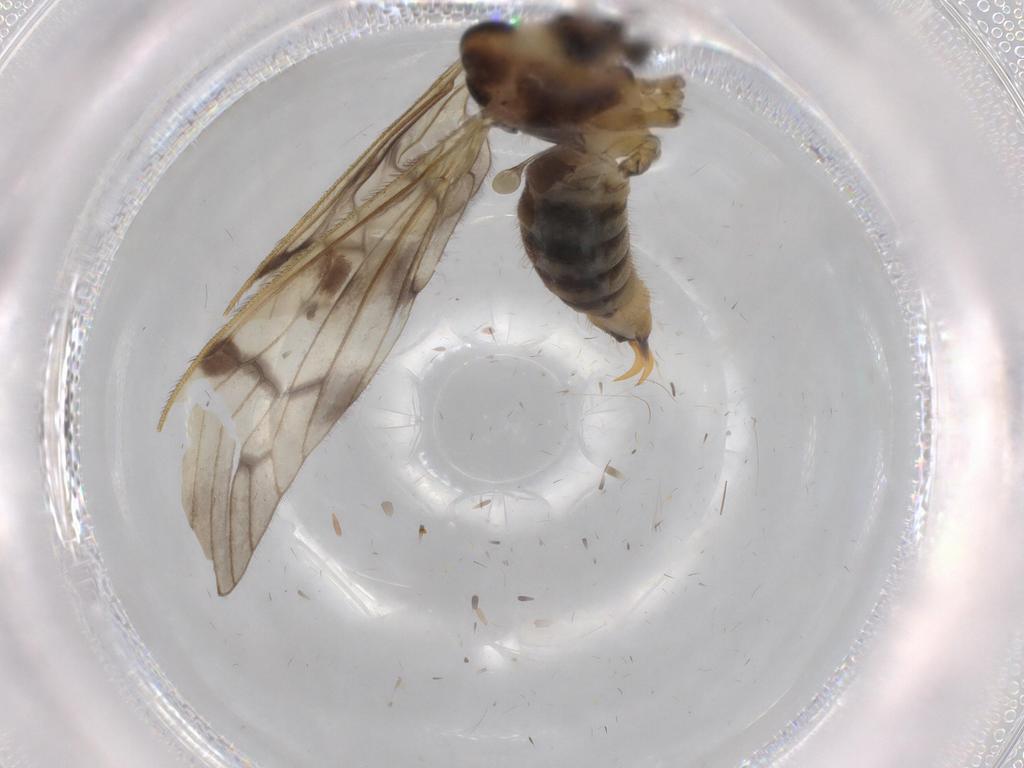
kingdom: Animalia
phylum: Arthropoda
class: Insecta
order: Diptera
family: Limoniidae
